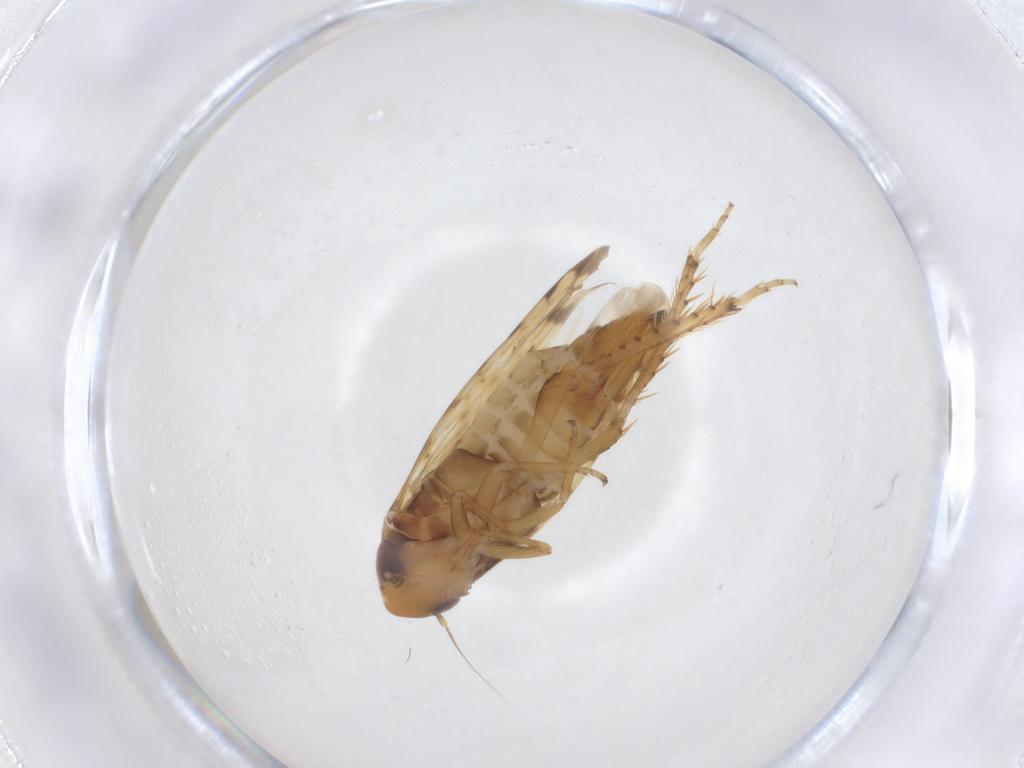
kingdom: Animalia
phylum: Arthropoda
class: Insecta
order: Hemiptera
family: Cicadellidae
